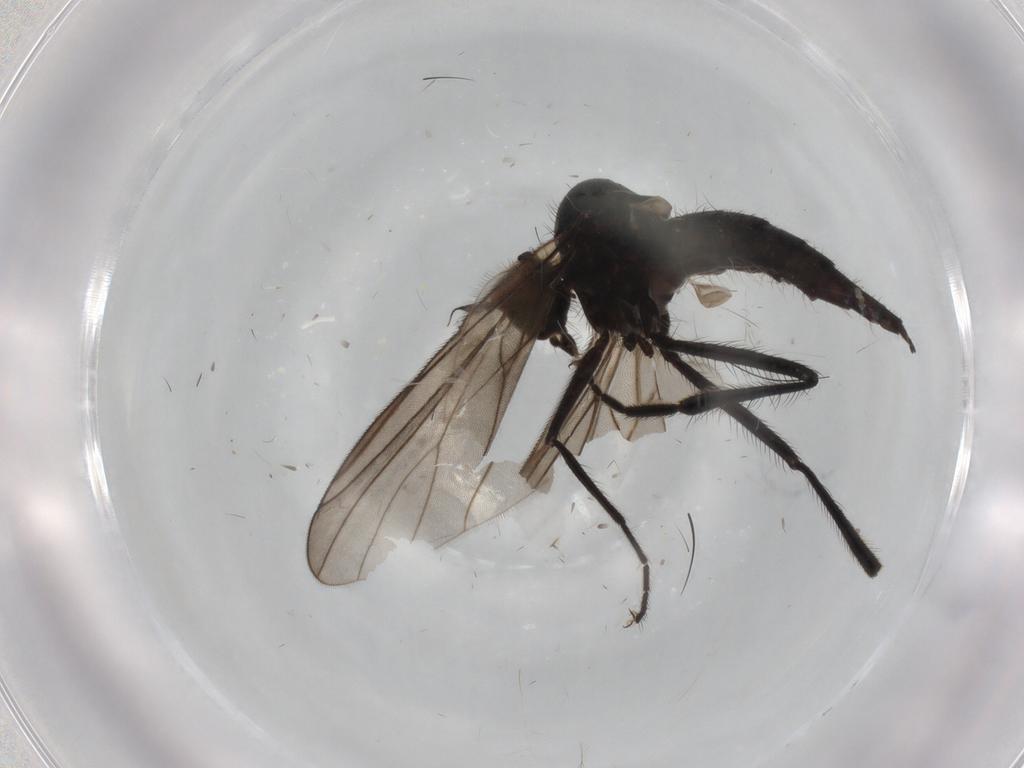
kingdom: Animalia
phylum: Arthropoda
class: Insecta
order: Diptera
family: Hybotidae
